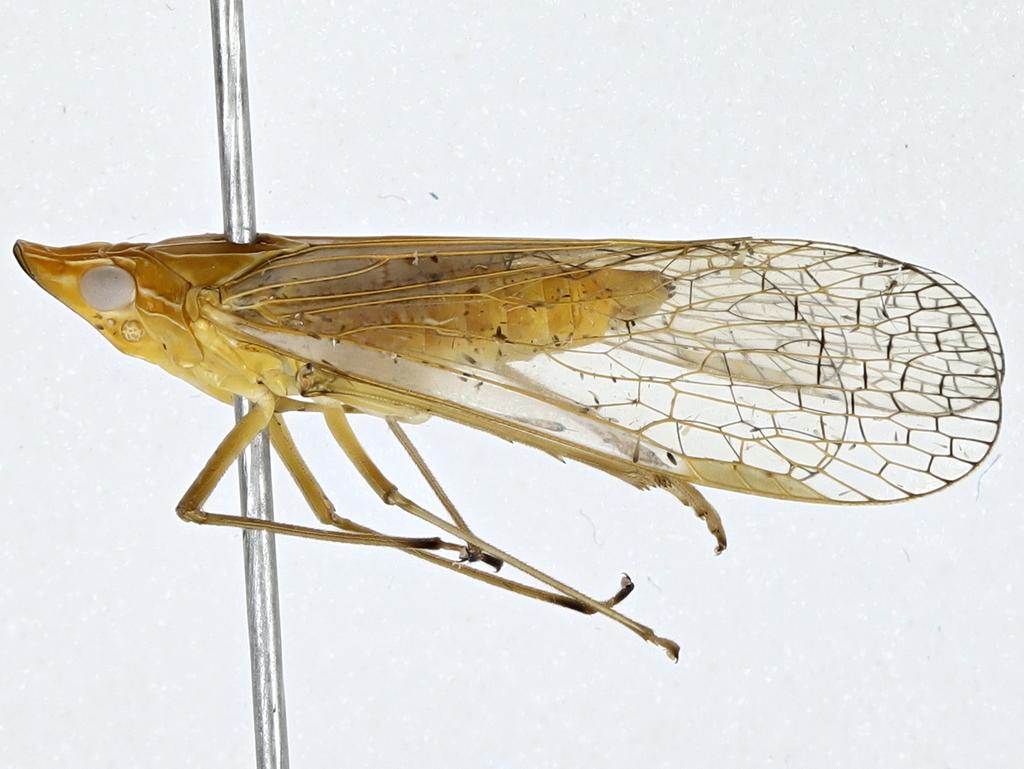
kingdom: Animalia
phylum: Arthropoda
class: Insecta
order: Hemiptera
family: Dictyopharidae
